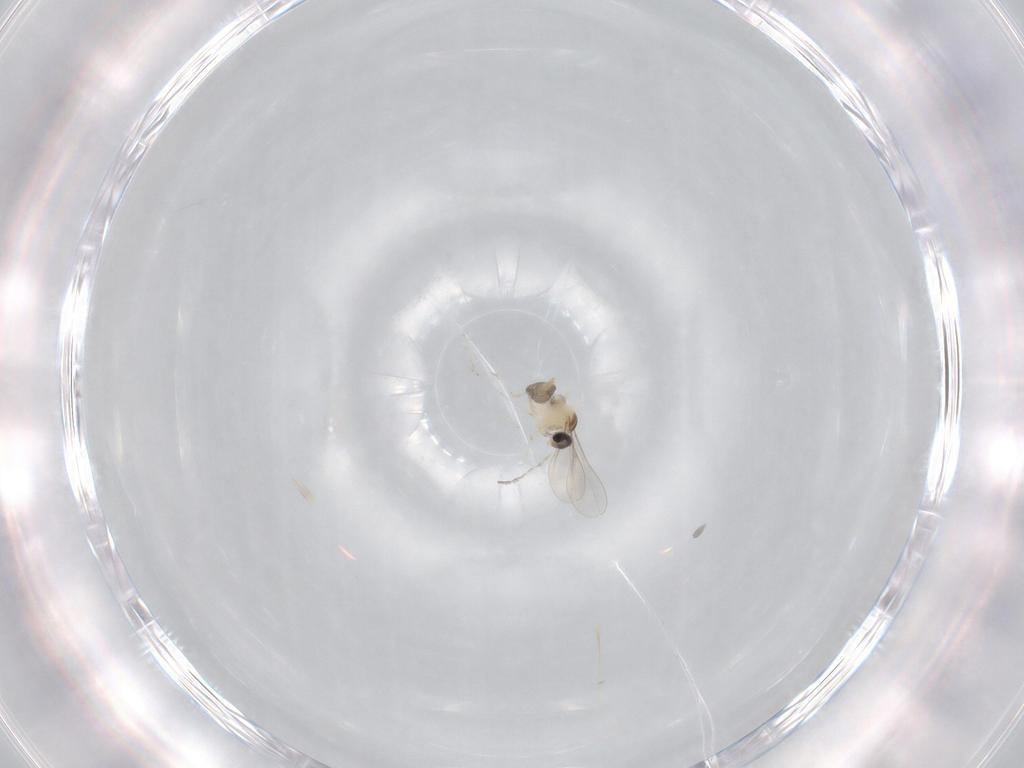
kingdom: Animalia
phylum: Arthropoda
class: Insecta
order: Diptera
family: Cecidomyiidae
